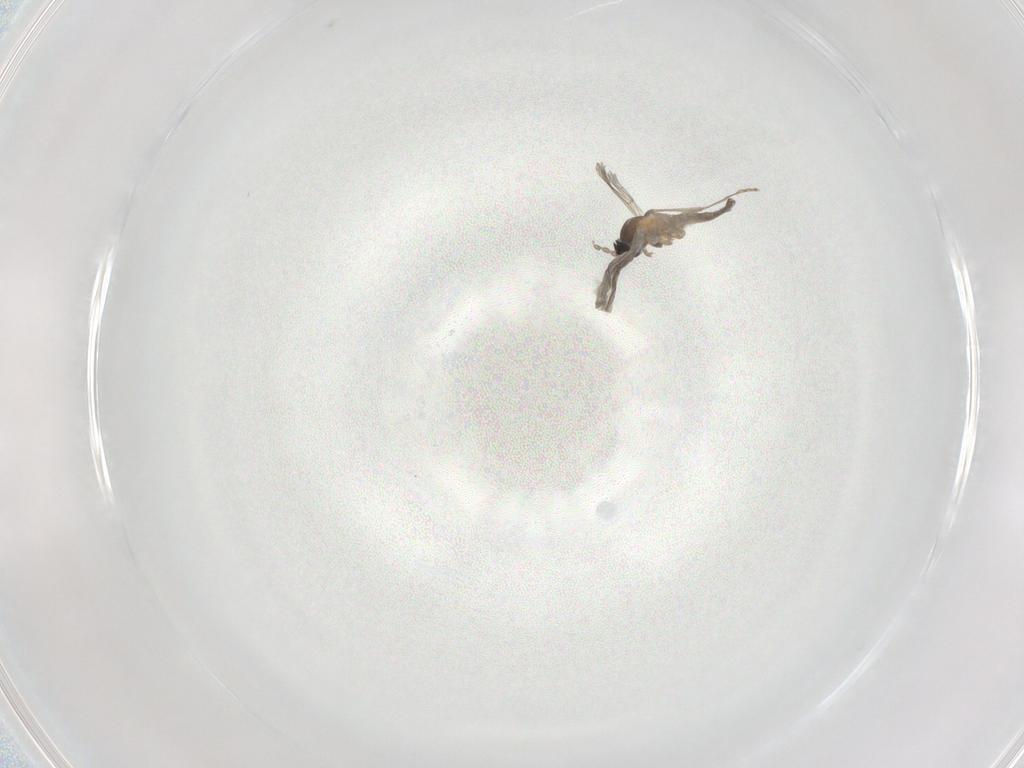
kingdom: Animalia
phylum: Arthropoda
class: Insecta
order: Diptera
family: Cecidomyiidae
